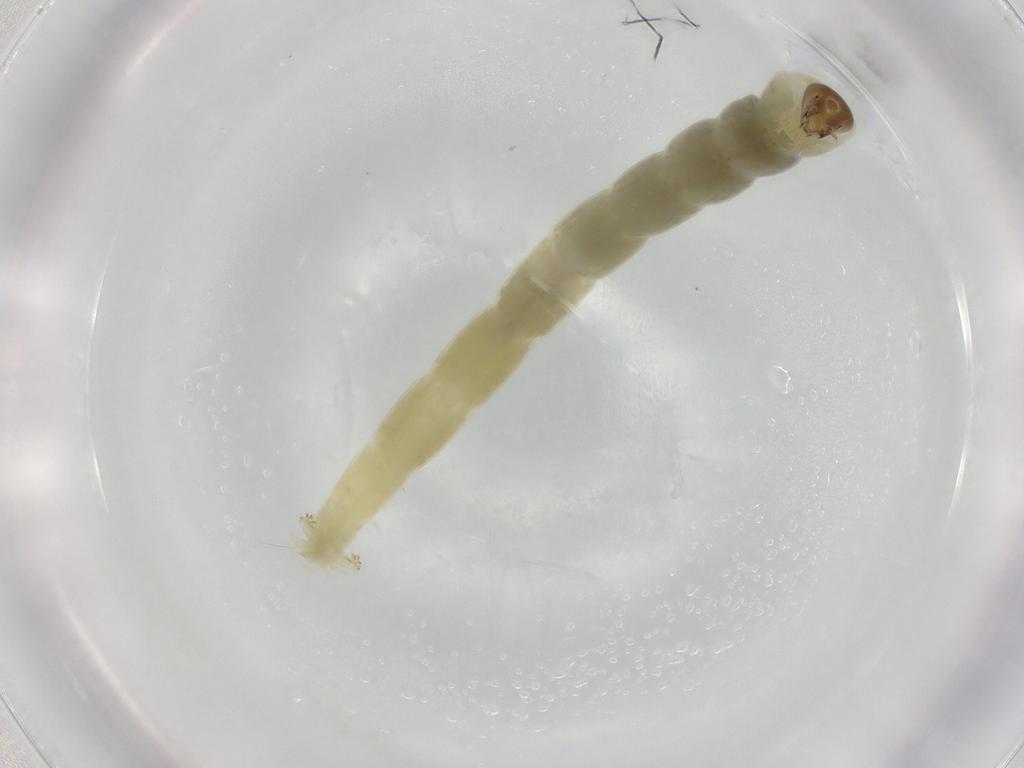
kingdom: Animalia
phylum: Arthropoda
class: Insecta
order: Diptera
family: Chironomidae
